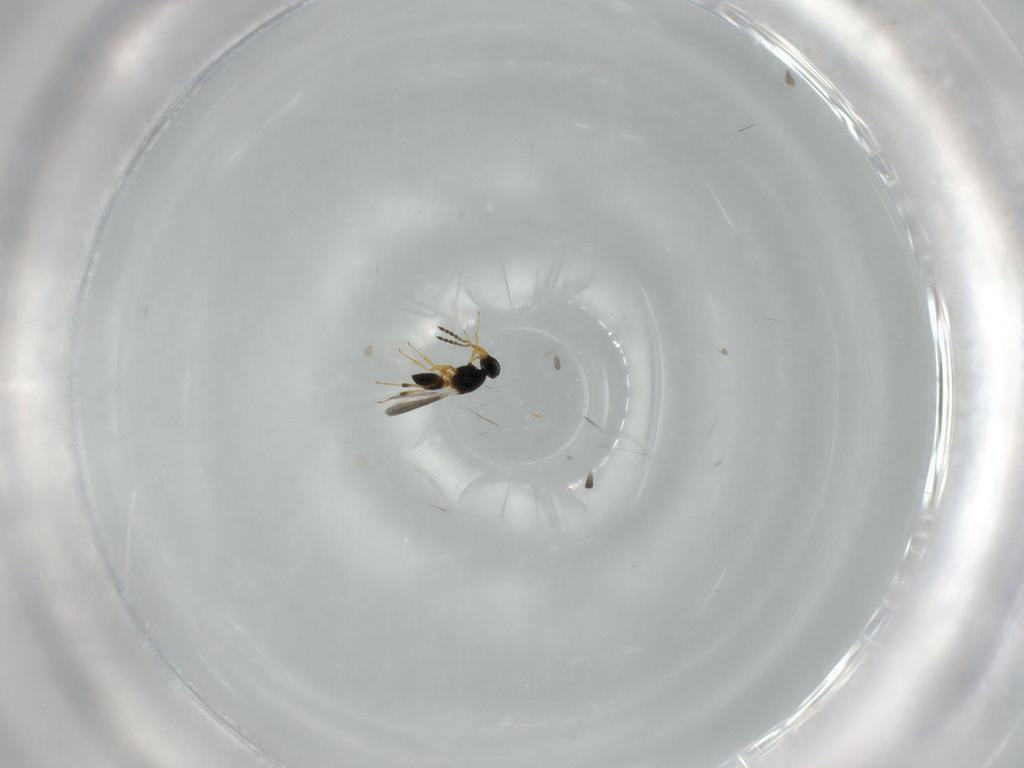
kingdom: Animalia
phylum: Arthropoda
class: Insecta
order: Hymenoptera
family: Platygastridae
